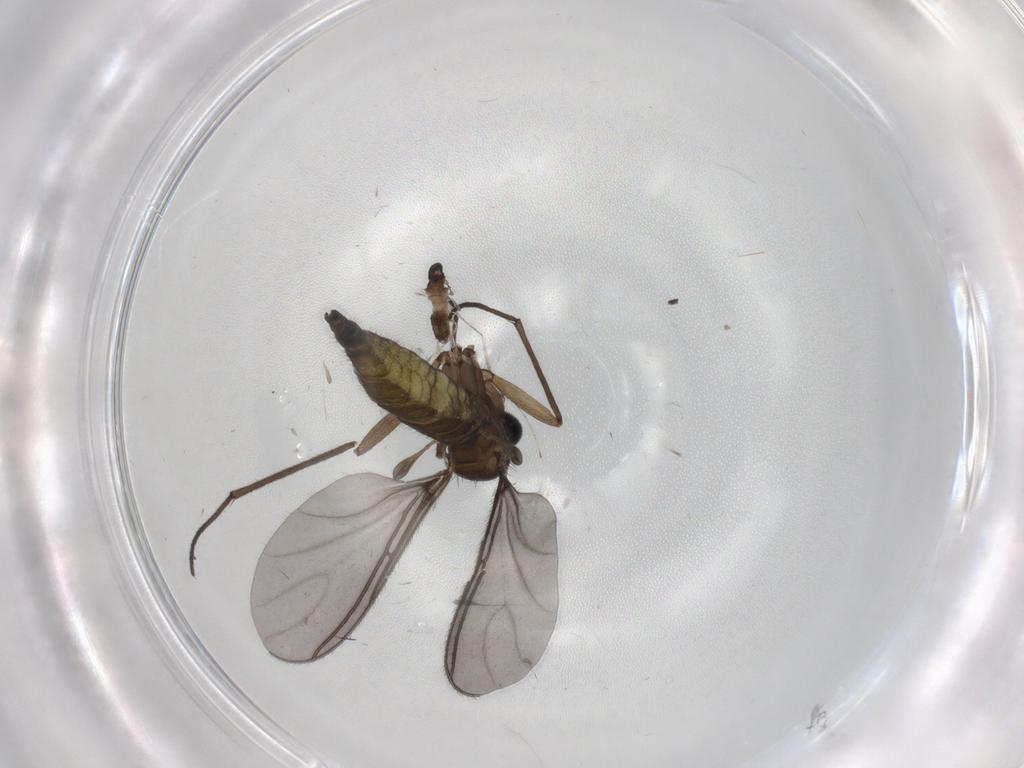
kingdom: Animalia
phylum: Arthropoda
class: Insecta
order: Diptera
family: Sciaridae
